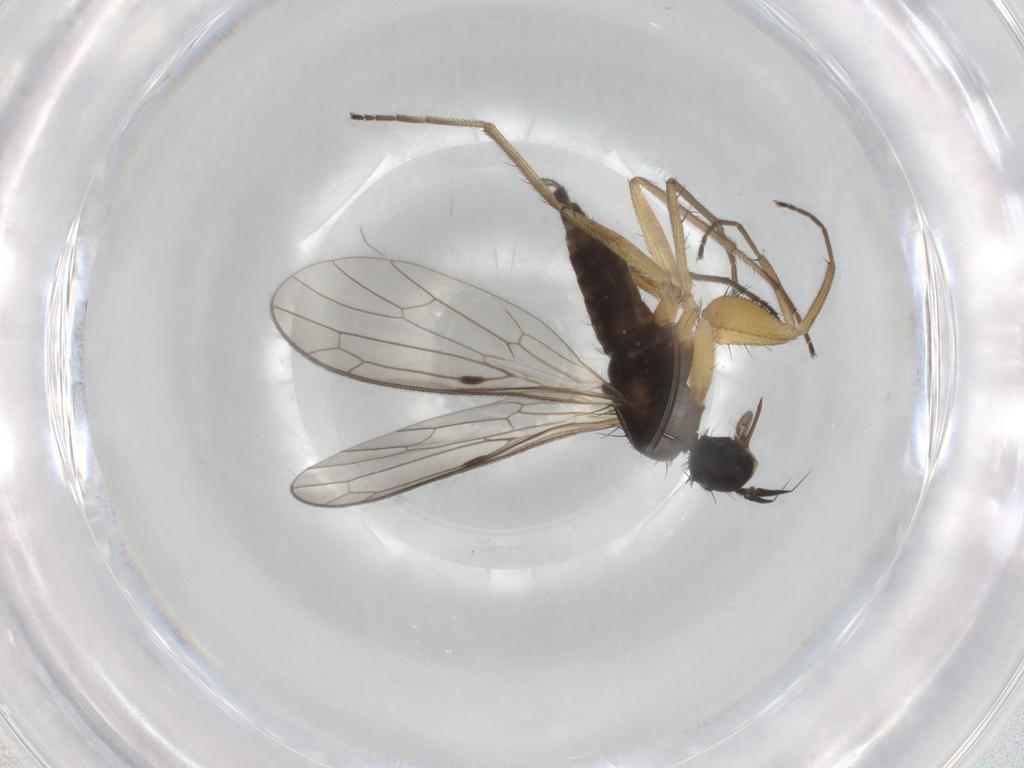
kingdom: Animalia
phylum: Arthropoda
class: Insecta
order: Diptera
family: Chironomidae
